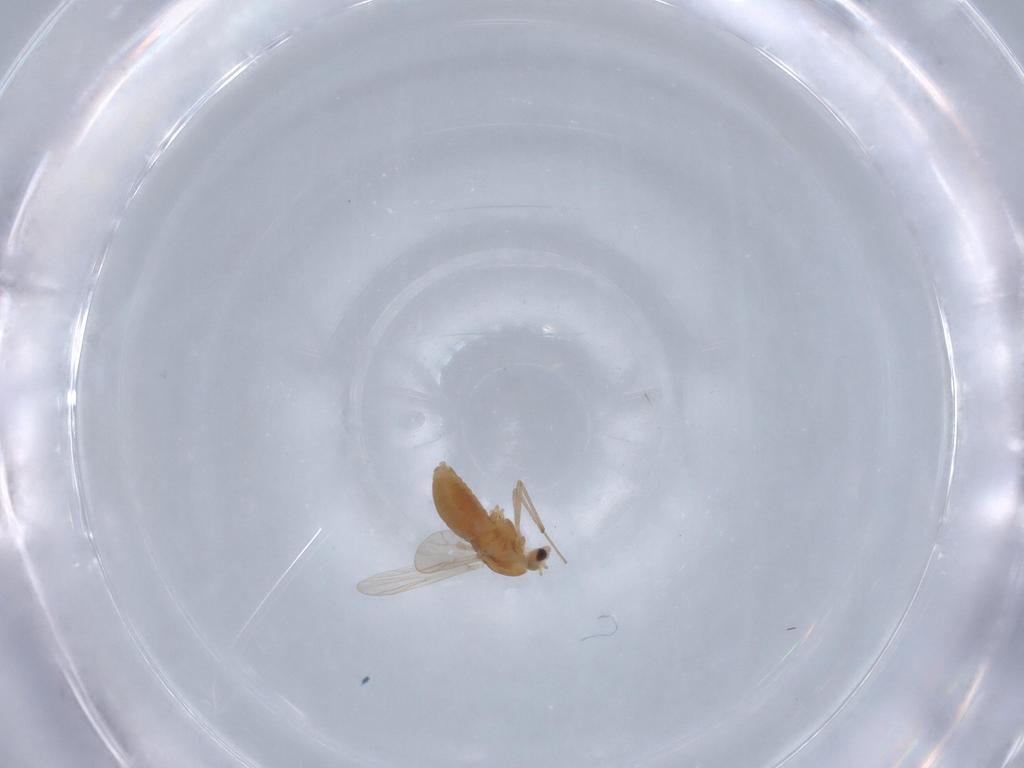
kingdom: Animalia
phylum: Arthropoda
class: Insecta
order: Diptera
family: Chironomidae
